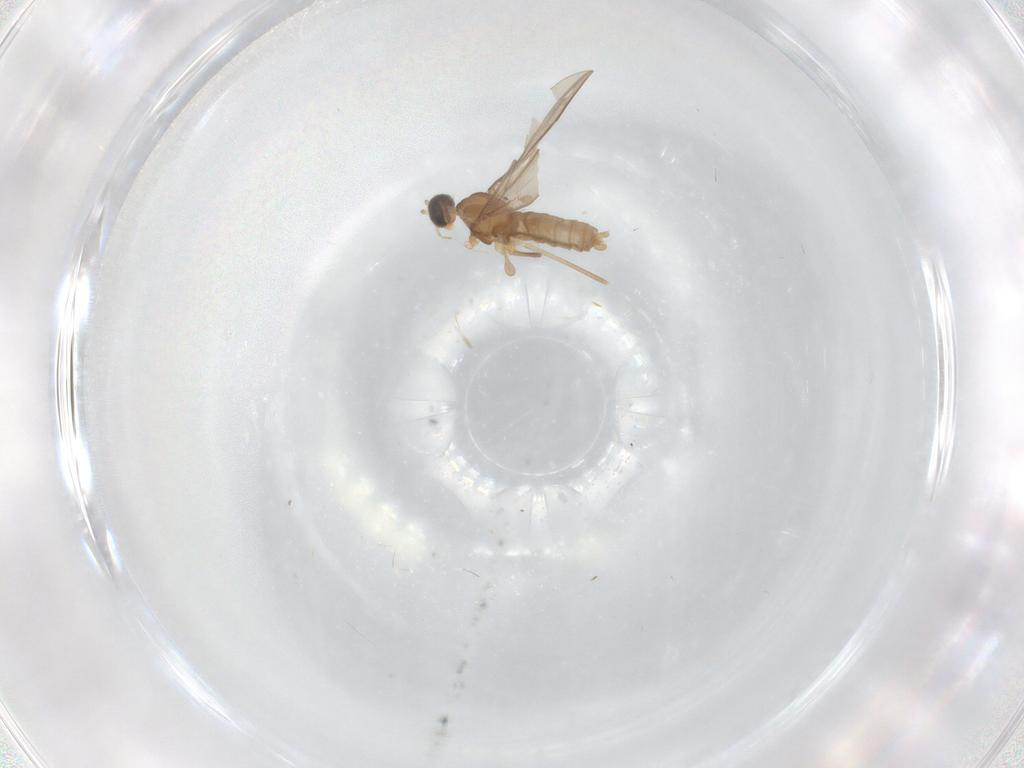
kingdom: Animalia
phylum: Arthropoda
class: Insecta
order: Diptera
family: Cecidomyiidae
